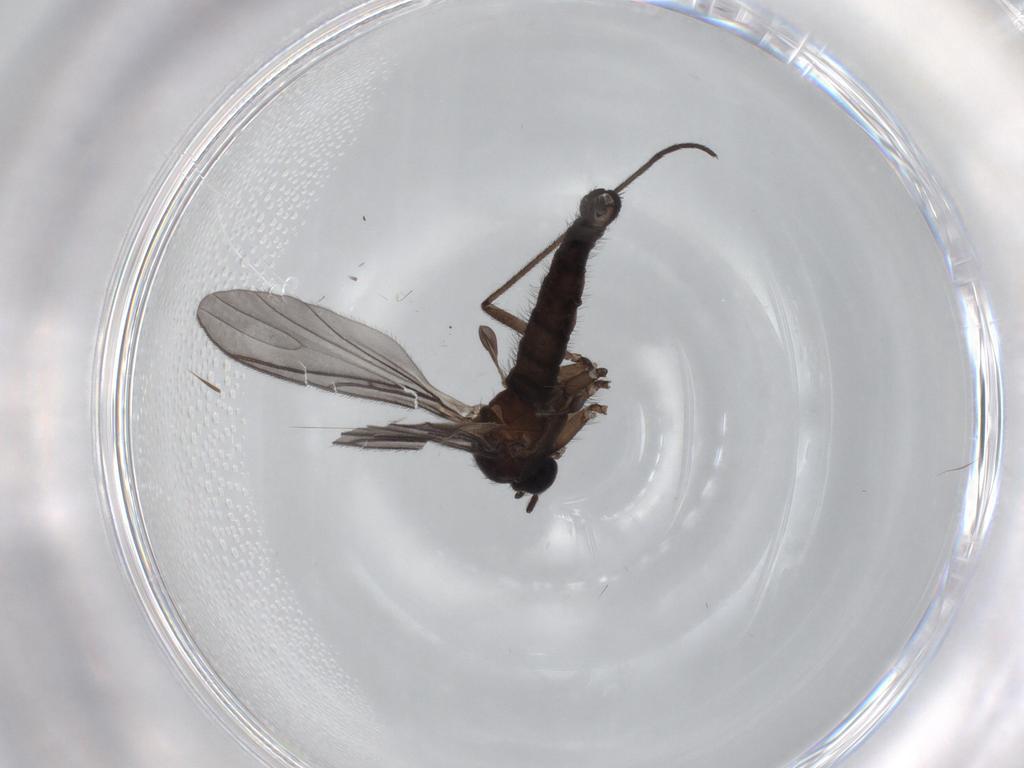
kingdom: Animalia
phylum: Arthropoda
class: Insecta
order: Diptera
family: Sciaridae
